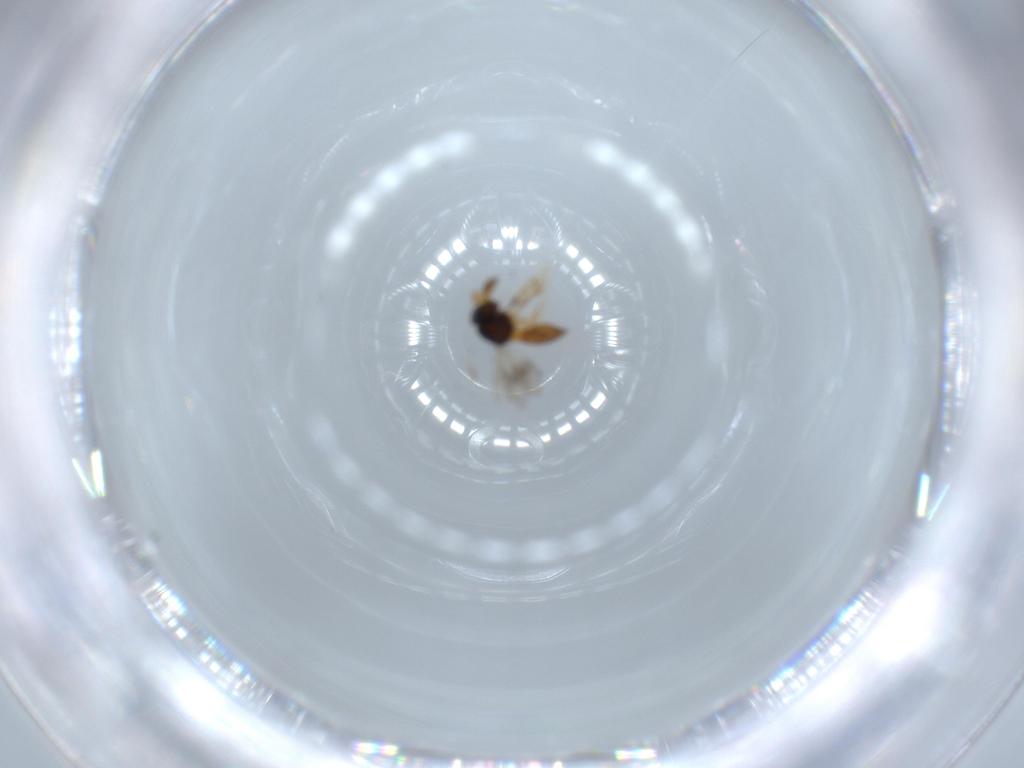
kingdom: Animalia
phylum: Arthropoda
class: Insecta
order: Hymenoptera
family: Scelionidae
